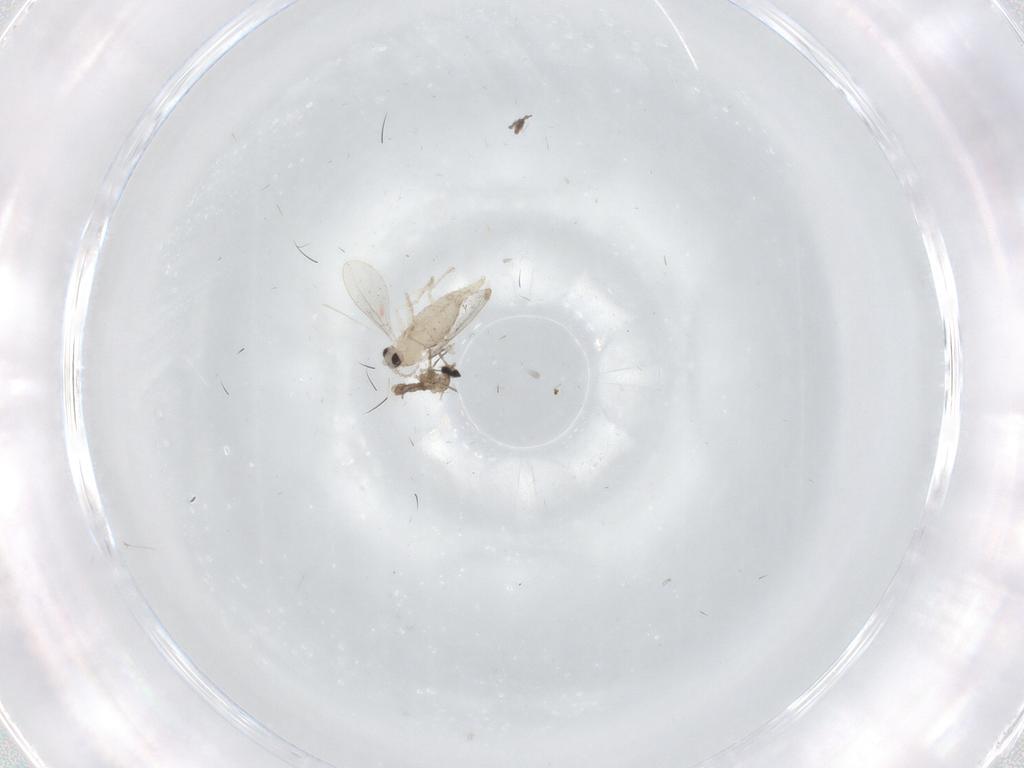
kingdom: Animalia
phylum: Arthropoda
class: Insecta
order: Diptera
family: Cecidomyiidae
